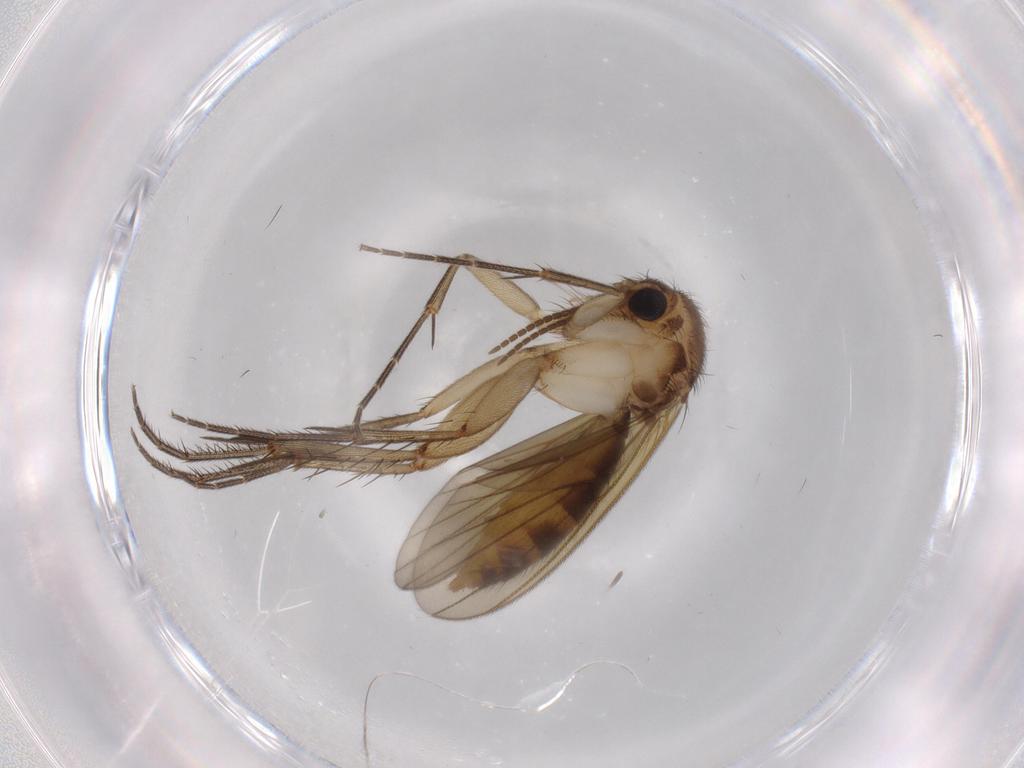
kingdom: Animalia
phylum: Arthropoda
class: Insecta
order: Diptera
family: Mycetophilidae
